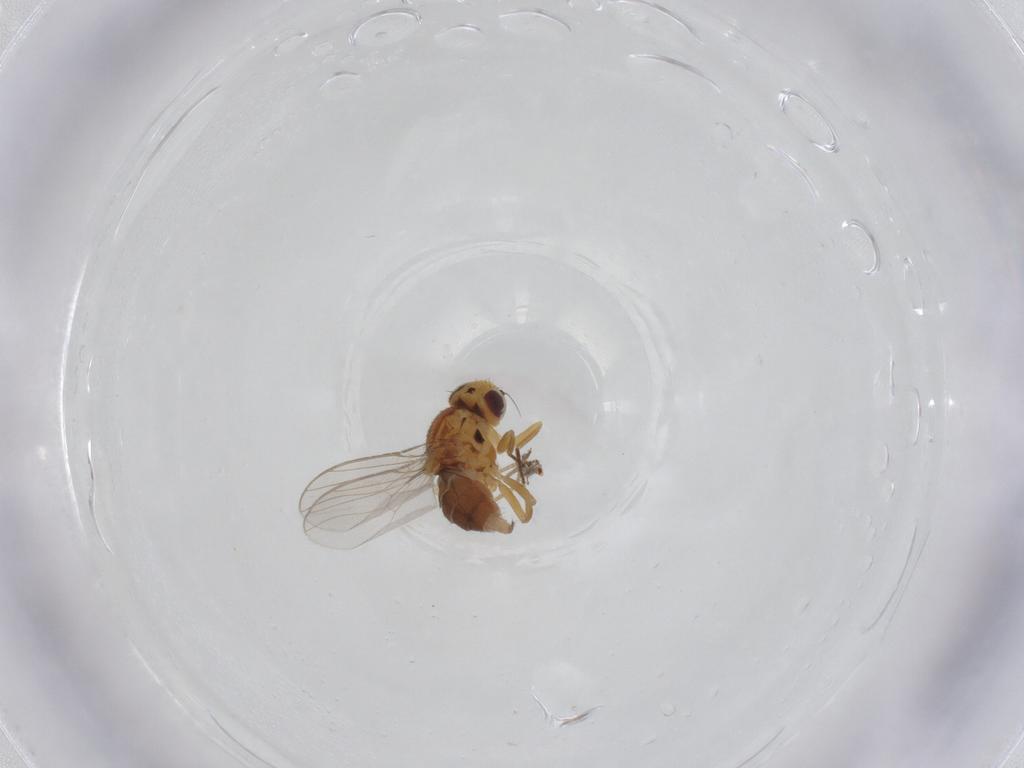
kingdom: Animalia
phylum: Arthropoda
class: Insecta
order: Diptera
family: Chloropidae
